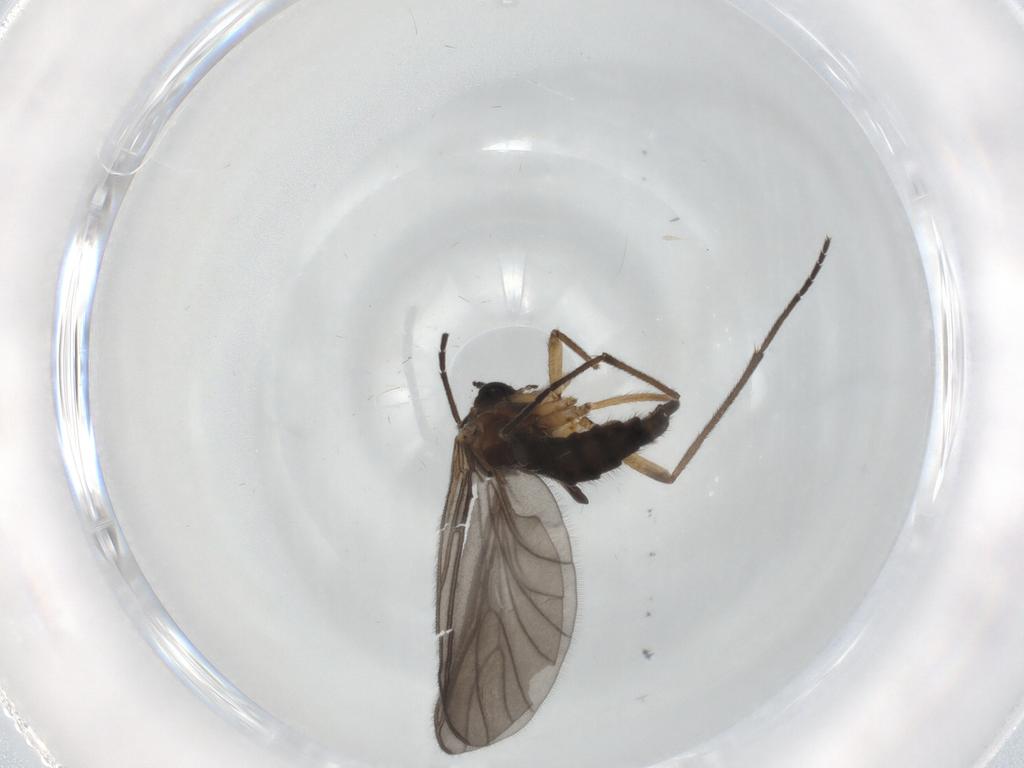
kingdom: Animalia
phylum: Arthropoda
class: Insecta
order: Diptera
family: Sciaridae
